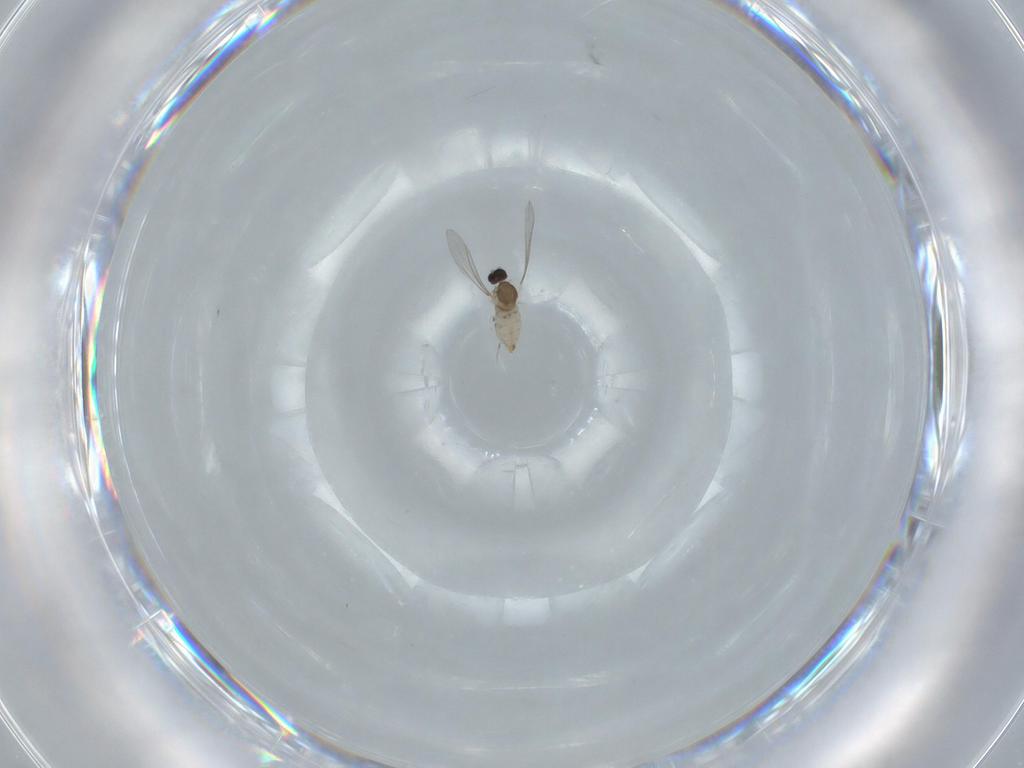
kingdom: Animalia
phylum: Arthropoda
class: Insecta
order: Diptera
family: Cecidomyiidae
